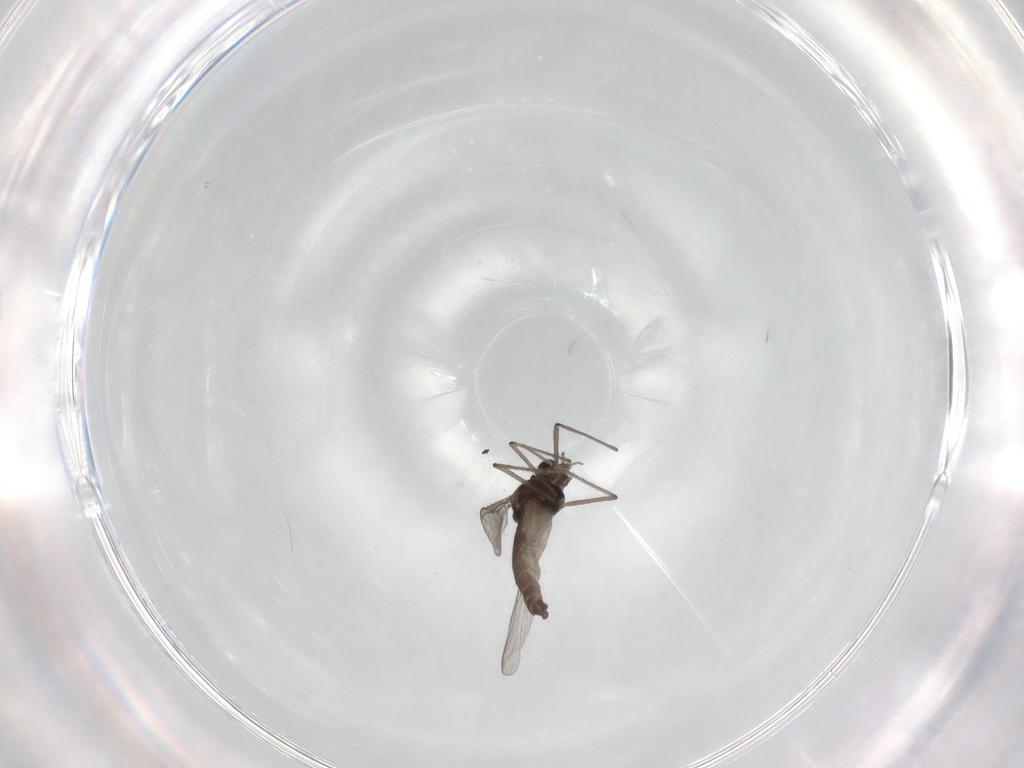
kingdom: Animalia
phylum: Arthropoda
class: Insecta
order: Diptera
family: Chironomidae
